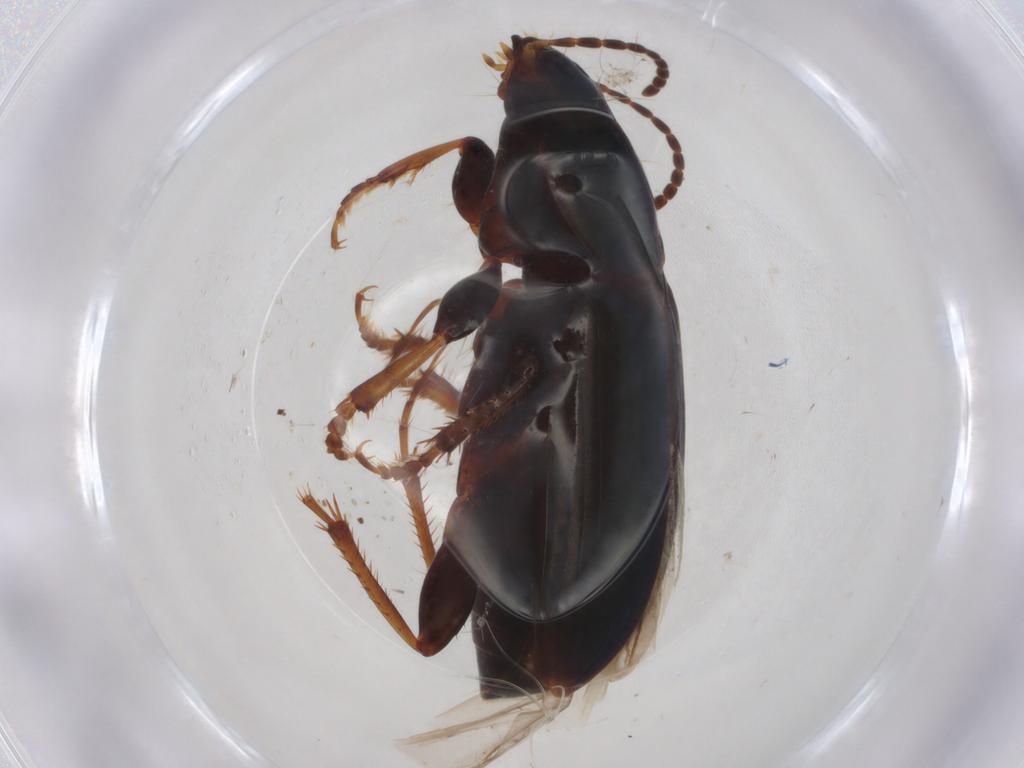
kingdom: Animalia
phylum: Arthropoda
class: Insecta
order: Coleoptera
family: Carabidae
